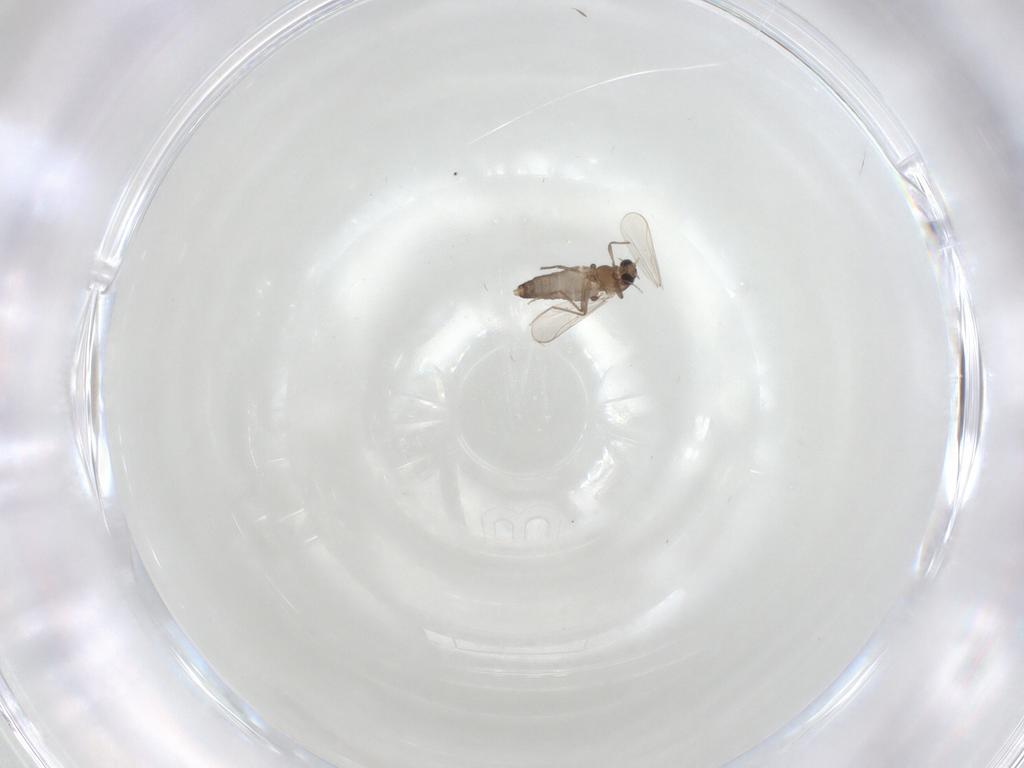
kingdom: Animalia
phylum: Arthropoda
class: Insecta
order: Diptera
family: Chironomidae
